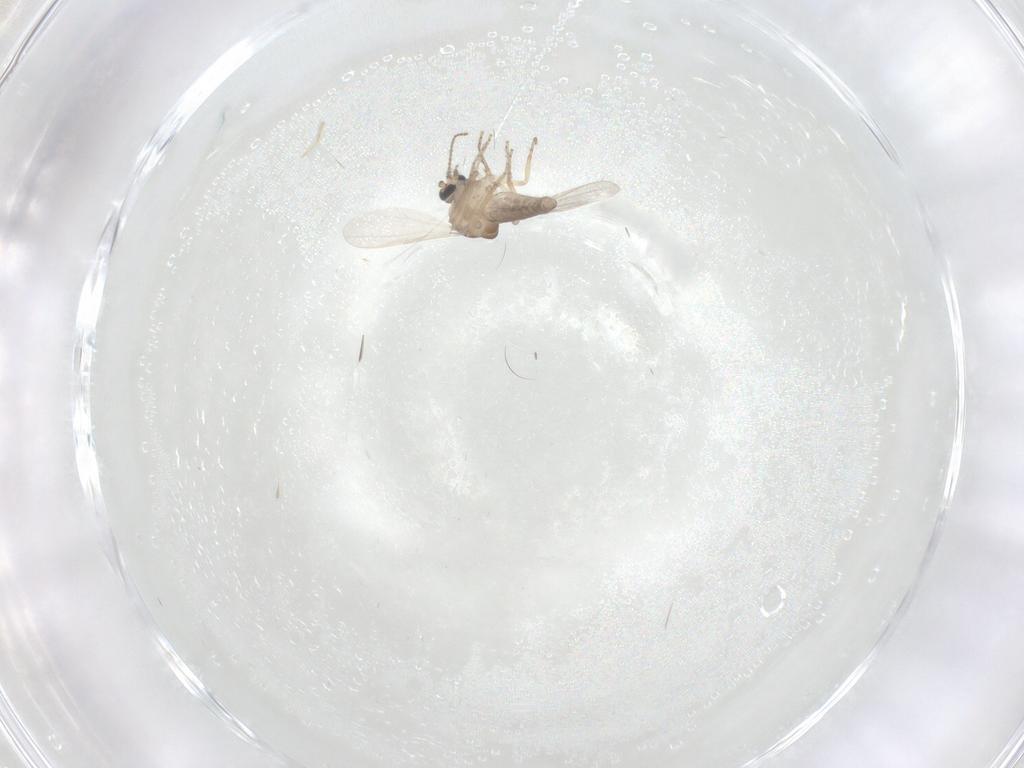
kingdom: Animalia
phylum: Arthropoda
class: Insecta
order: Diptera
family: Ceratopogonidae
